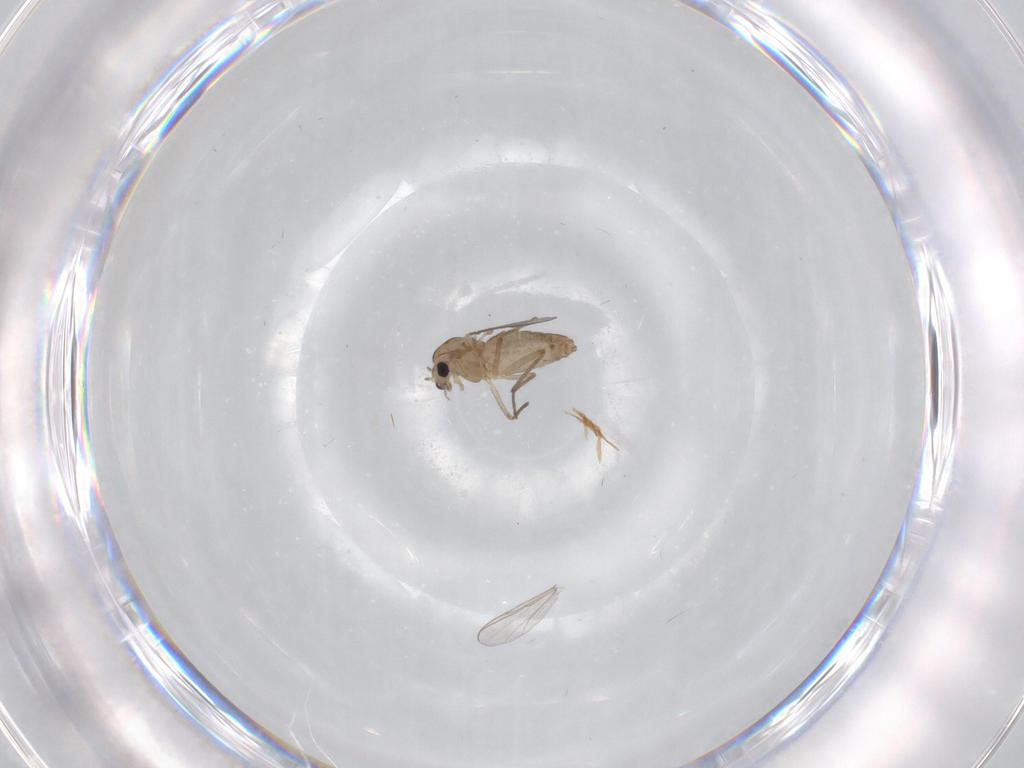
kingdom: Animalia
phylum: Arthropoda
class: Insecta
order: Diptera
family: Chironomidae
